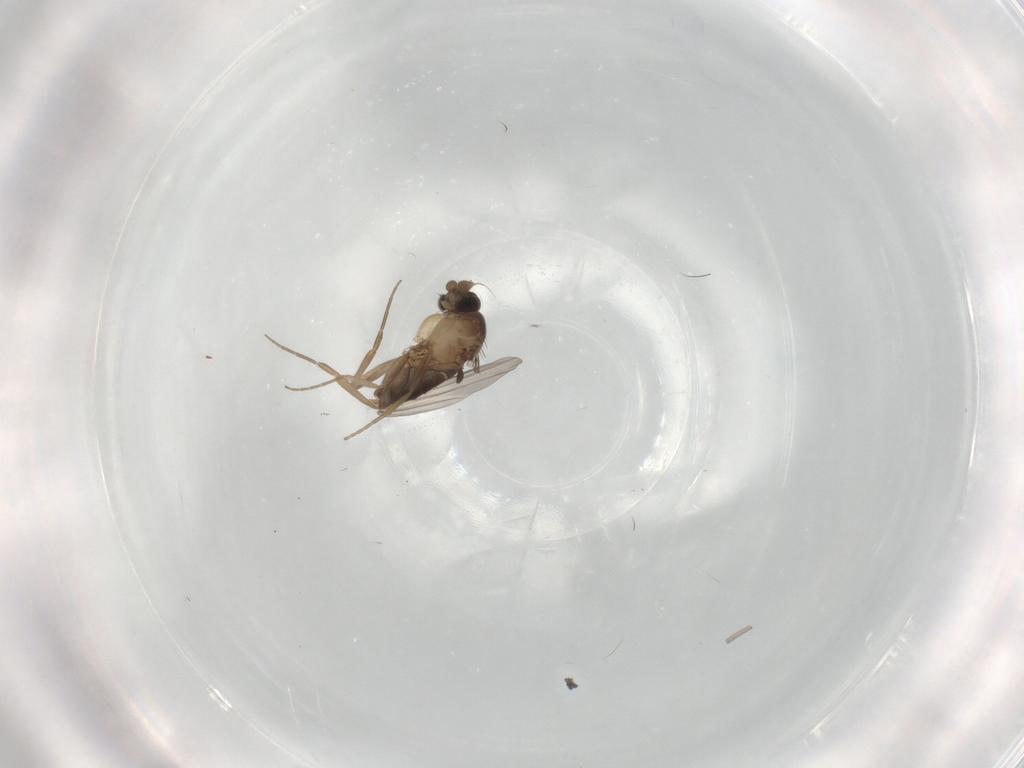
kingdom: Animalia
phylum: Arthropoda
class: Insecta
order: Diptera
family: Phoridae
